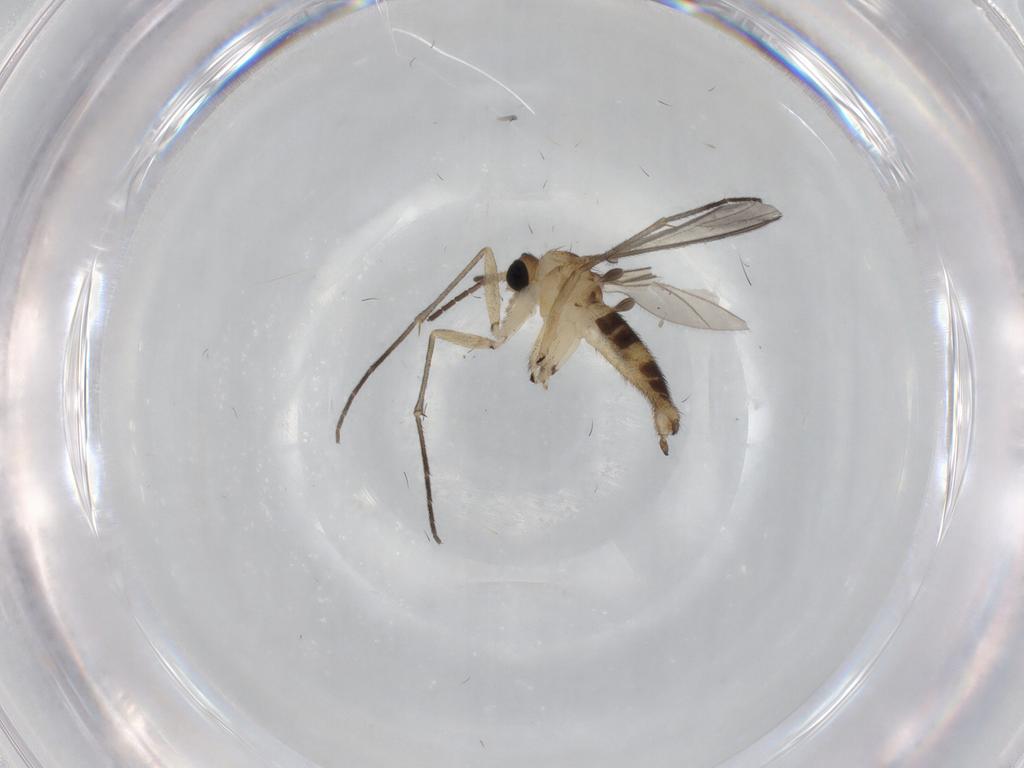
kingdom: Animalia
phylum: Arthropoda
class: Insecta
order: Diptera
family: Sciaridae
